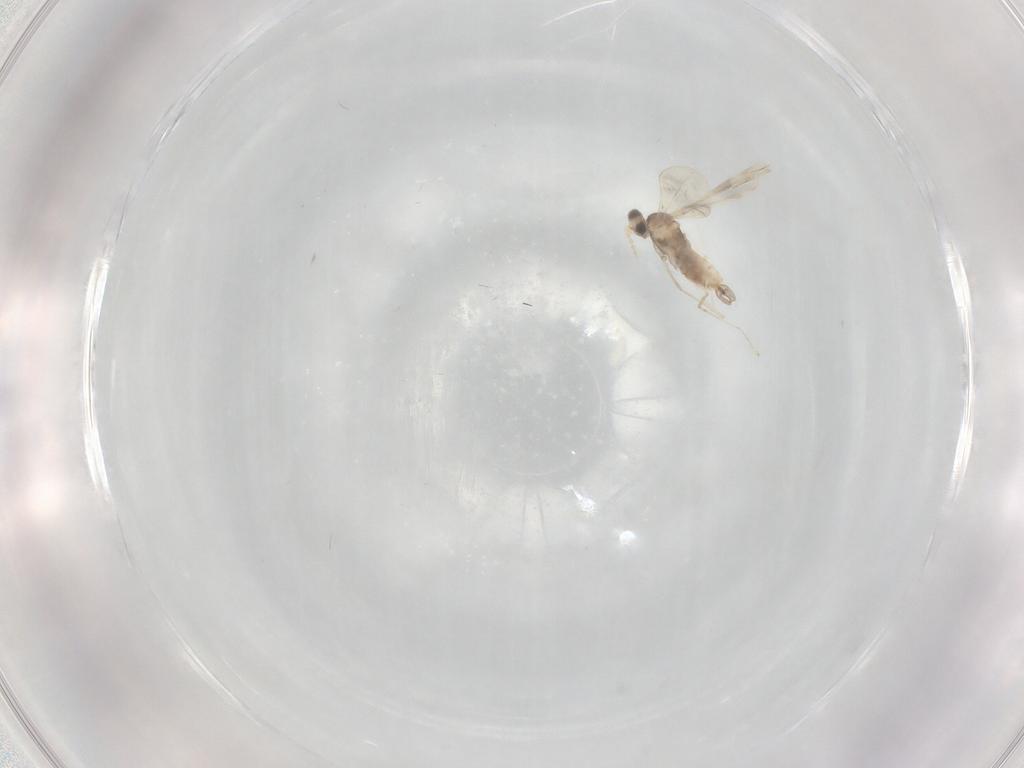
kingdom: Animalia
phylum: Arthropoda
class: Insecta
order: Diptera
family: Cecidomyiidae
